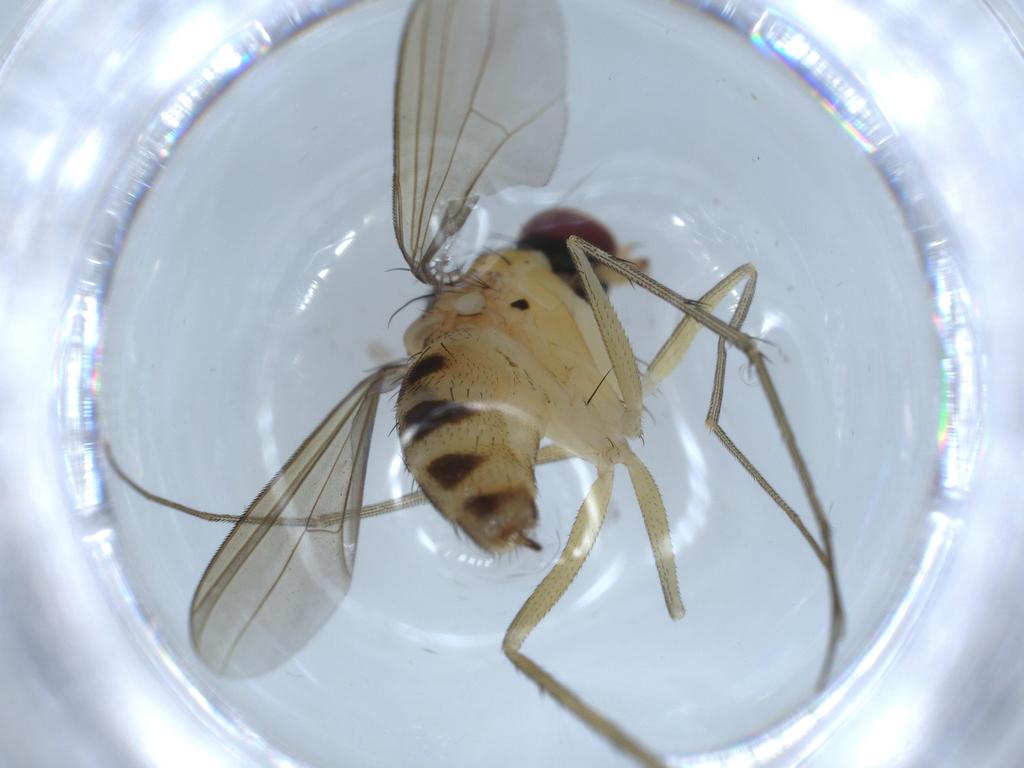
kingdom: Animalia
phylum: Arthropoda
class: Insecta
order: Diptera
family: Dolichopodidae
